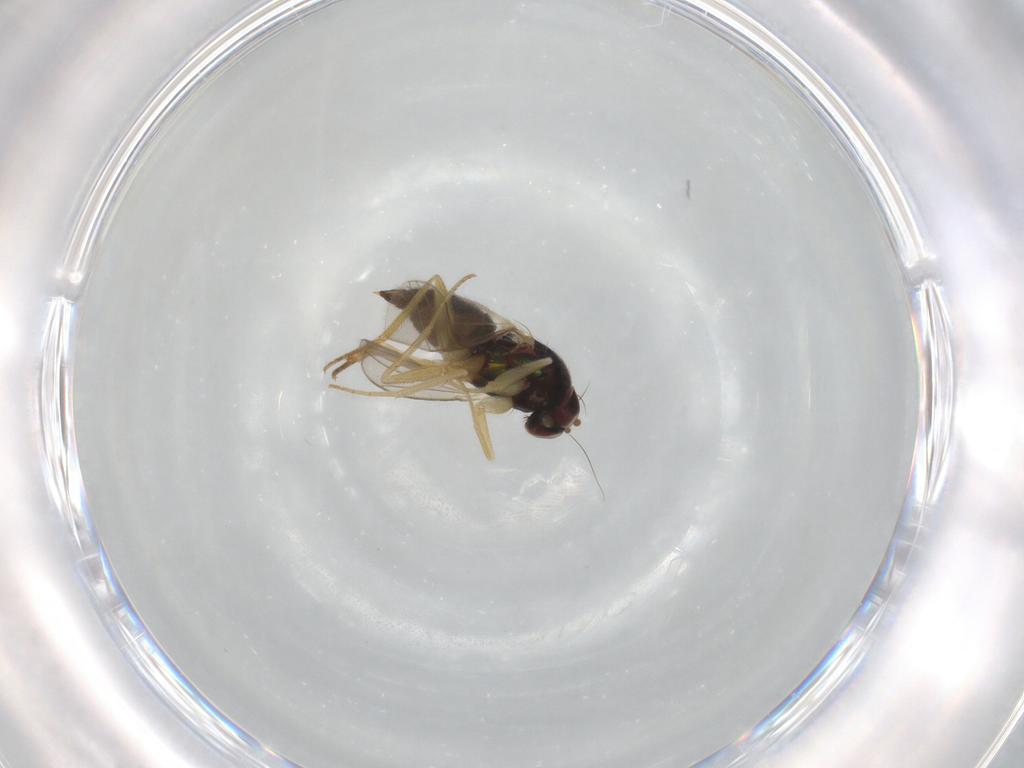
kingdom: Animalia
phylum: Arthropoda
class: Insecta
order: Diptera
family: Dolichopodidae
